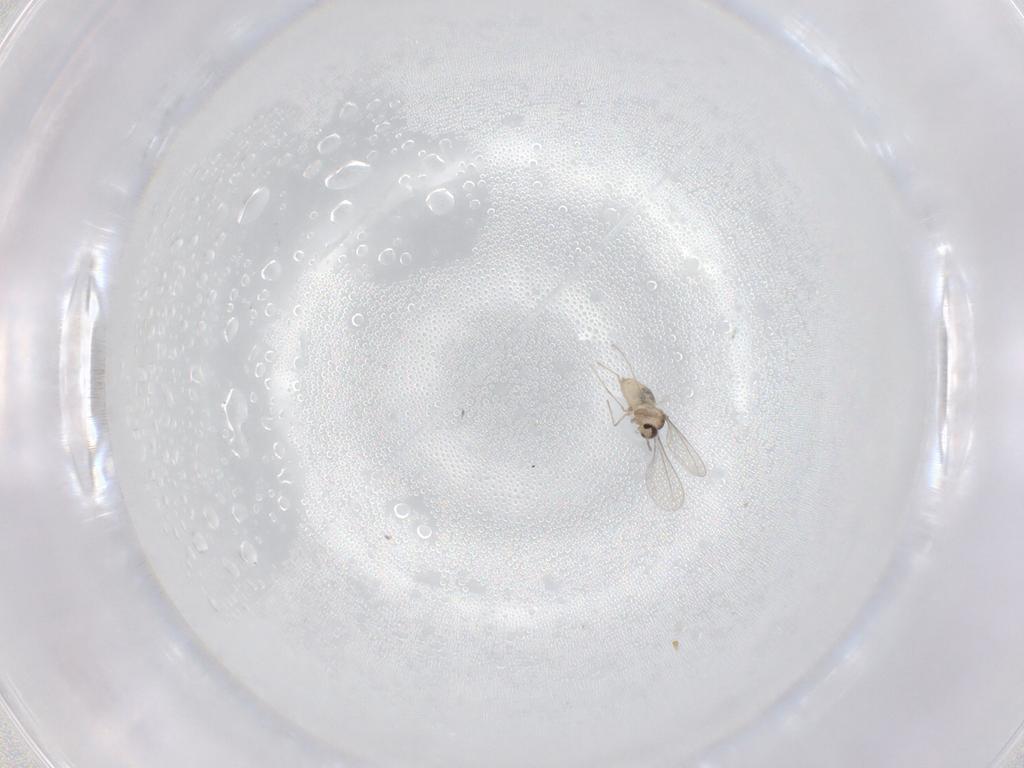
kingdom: Animalia
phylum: Arthropoda
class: Insecta
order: Diptera
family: Cecidomyiidae
